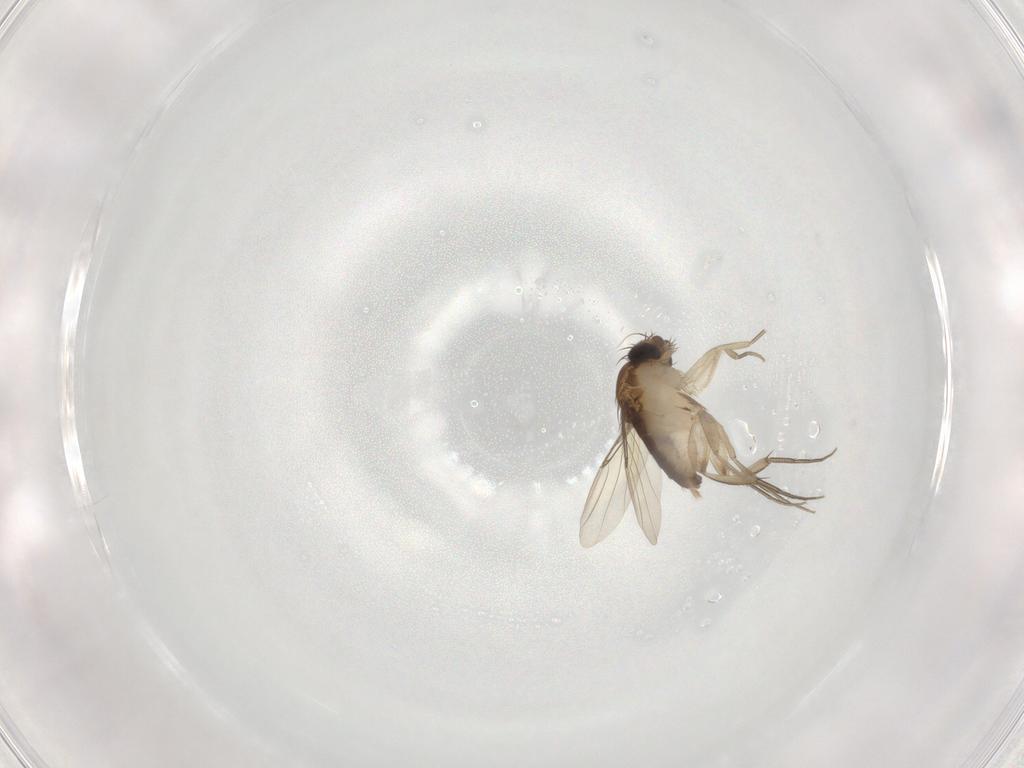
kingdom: Animalia
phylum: Arthropoda
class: Insecta
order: Diptera
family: Phoridae
